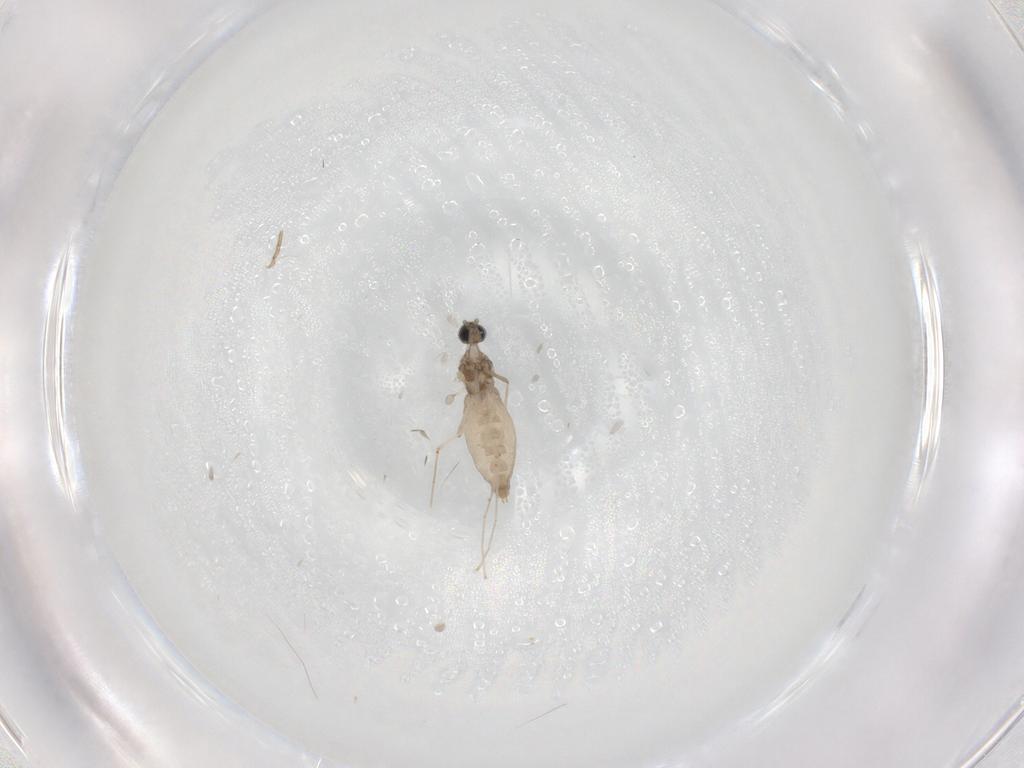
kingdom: Animalia
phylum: Arthropoda
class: Insecta
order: Diptera
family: Cecidomyiidae
